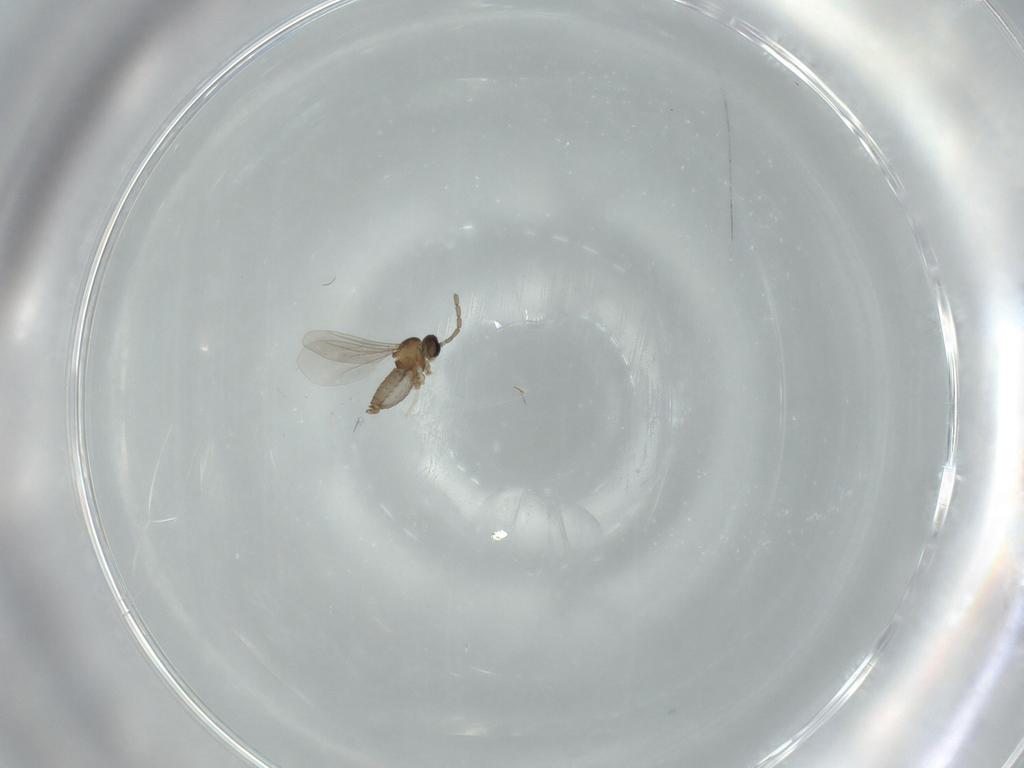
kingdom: Animalia
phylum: Arthropoda
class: Insecta
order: Diptera
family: Cecidomyiidae
